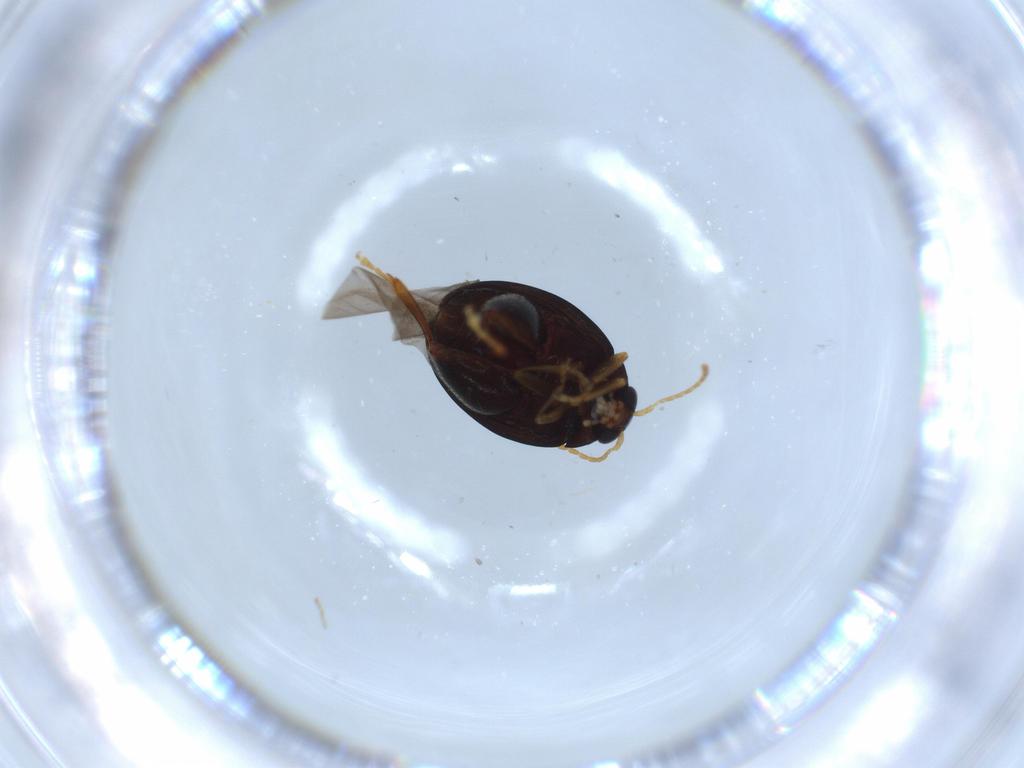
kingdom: Animalia
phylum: Arthropoda
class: Insecta
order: Coleoptera
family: Chrysomelidae
